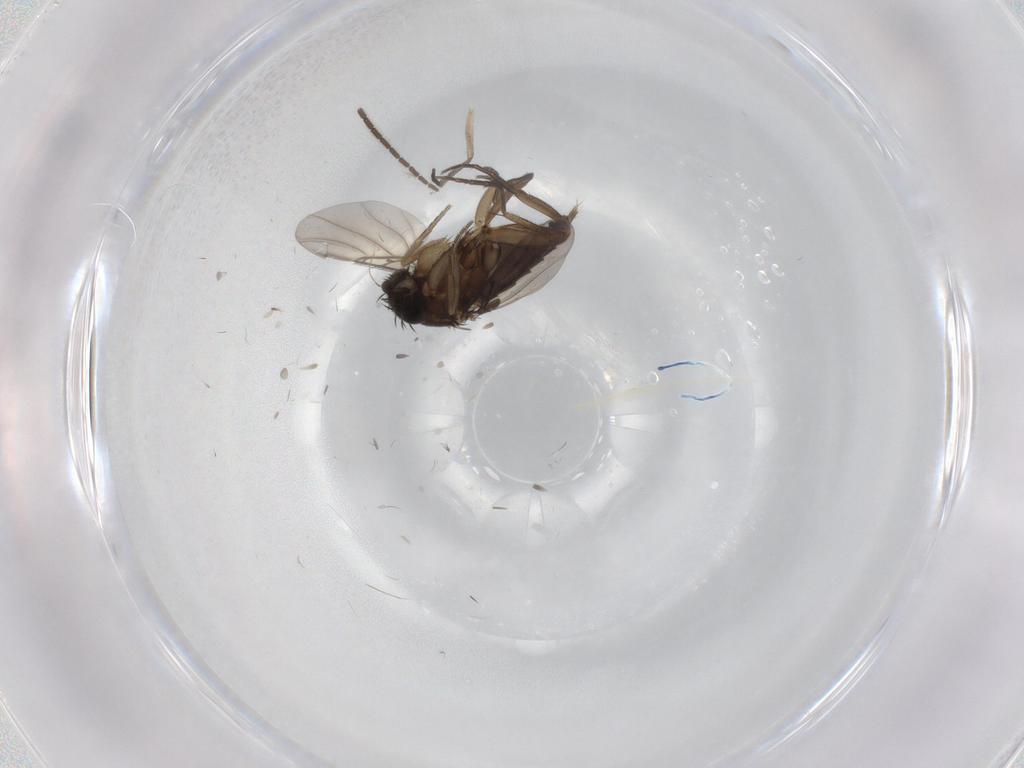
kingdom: Animalia
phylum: Arthropoda
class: Insecta
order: Diptera
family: Phoridae
